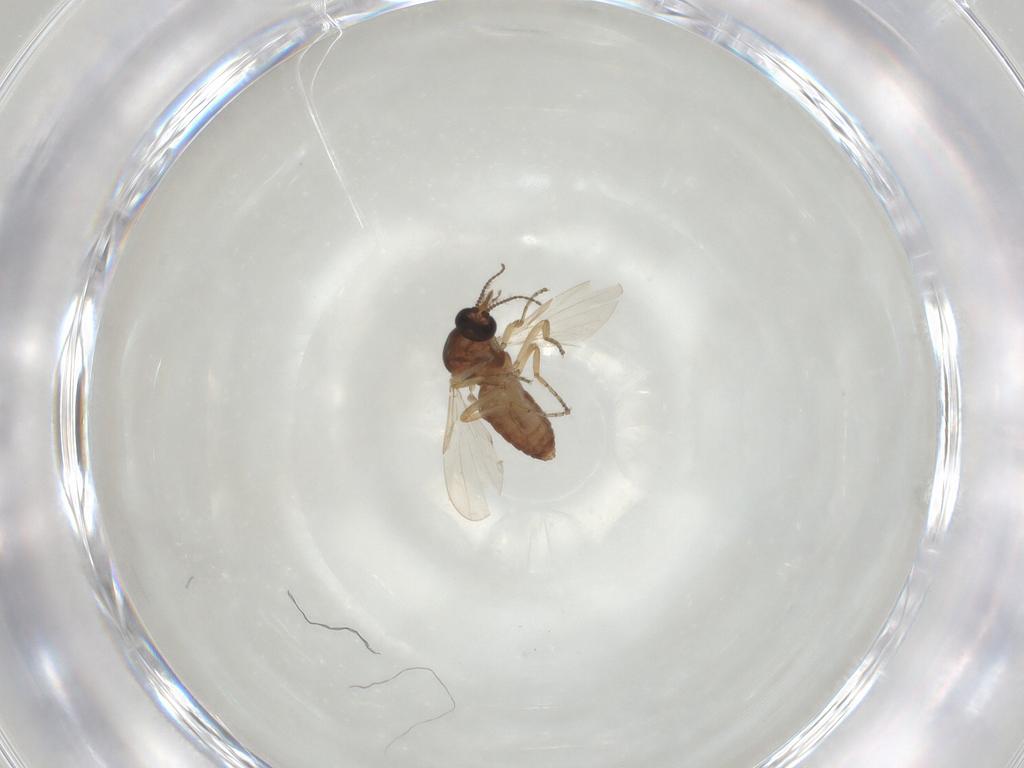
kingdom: Animalia
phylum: Arthropoda
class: Insecta
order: Diptera
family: Ceratopogonidae
